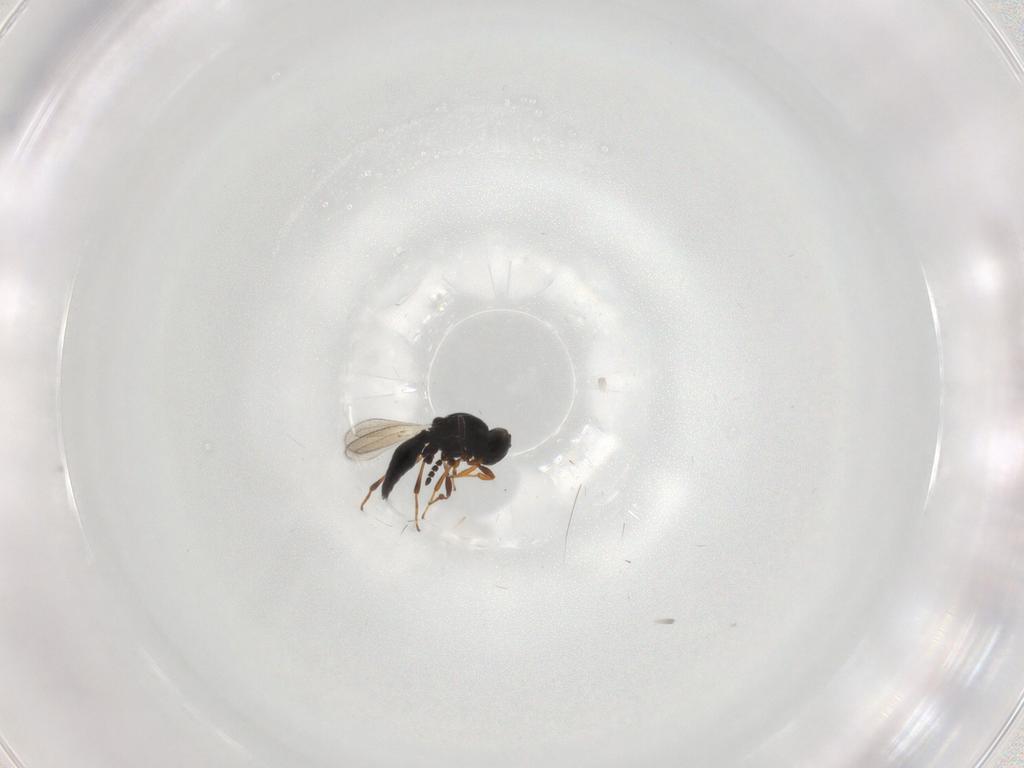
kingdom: Animalia
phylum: Arthropoda
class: Insecta
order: Hymenoptera
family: Platygastridae
